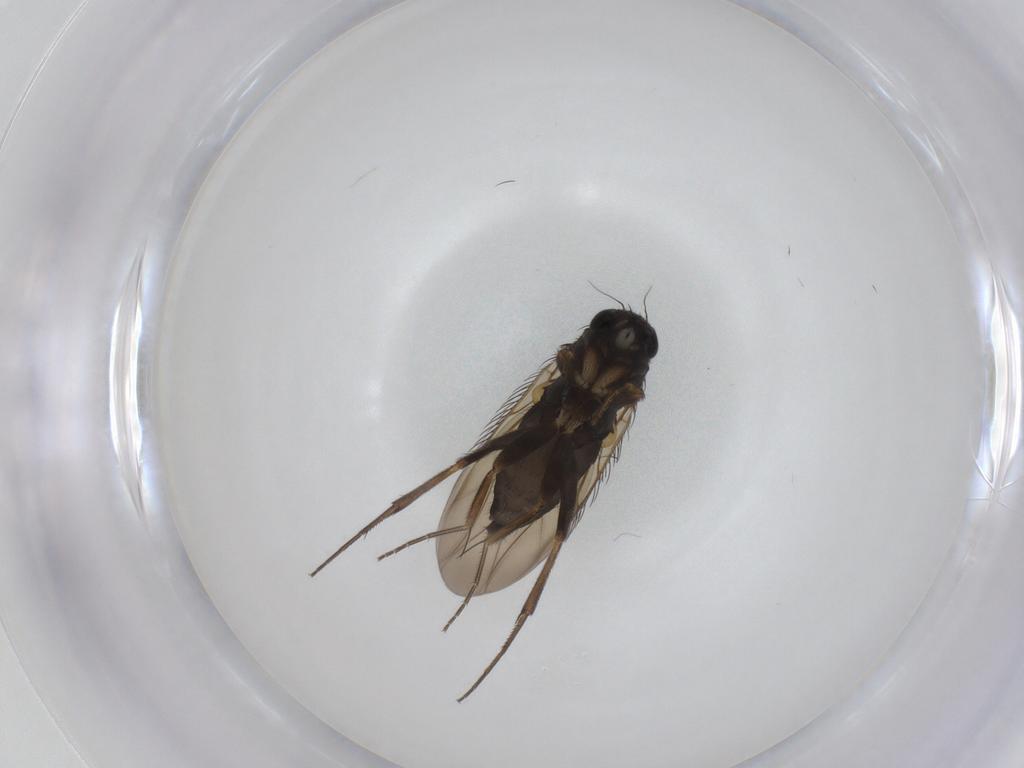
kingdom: Animalia
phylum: Arthropoda
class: Insecta
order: Diptera
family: Phoridae
